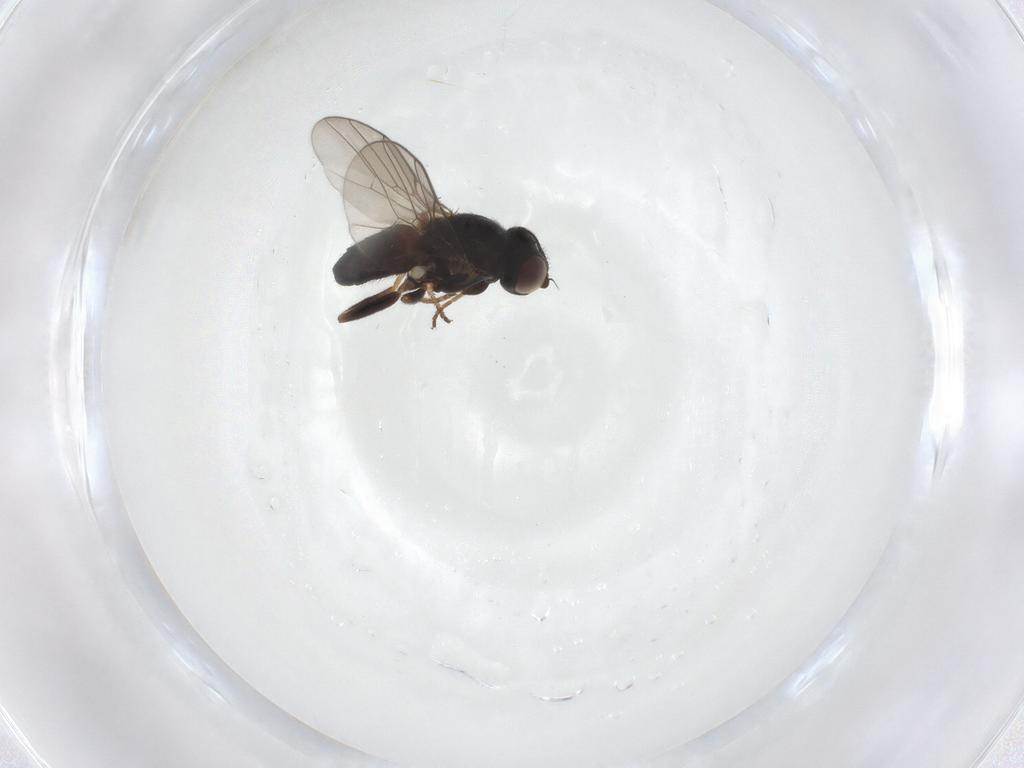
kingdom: Animalia
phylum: Arthropoda
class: Insecta
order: Diptera
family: Chloropidae
